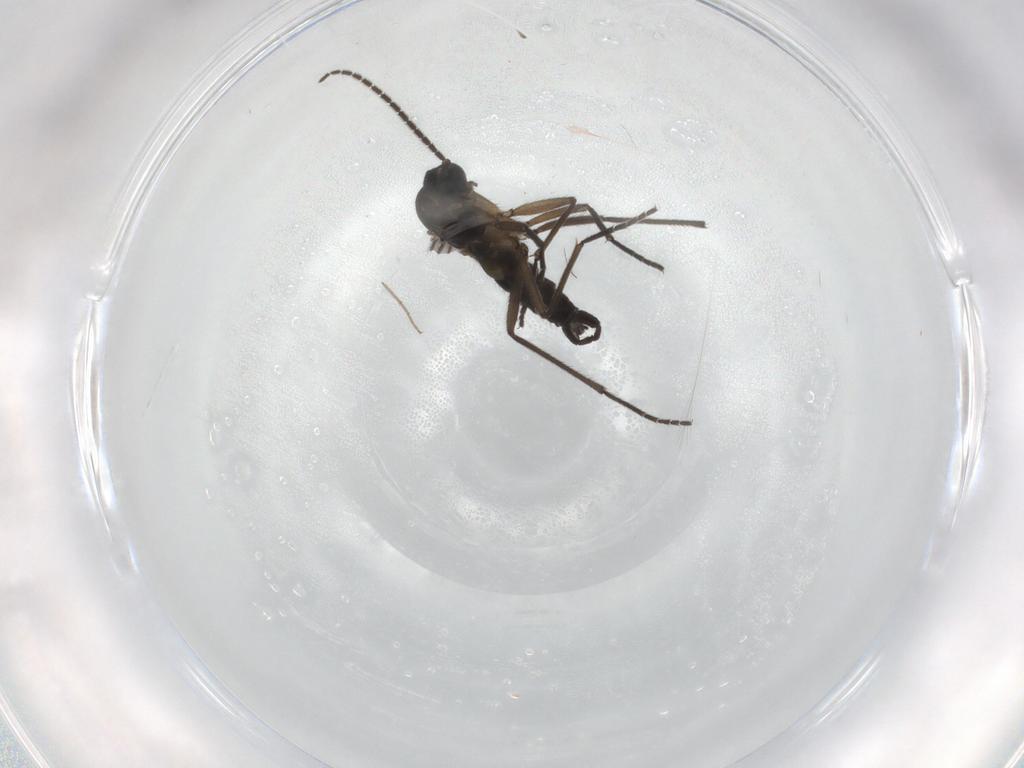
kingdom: Animalia
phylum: Arthropoda
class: Insecta
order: Diptera
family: Sciaridae
